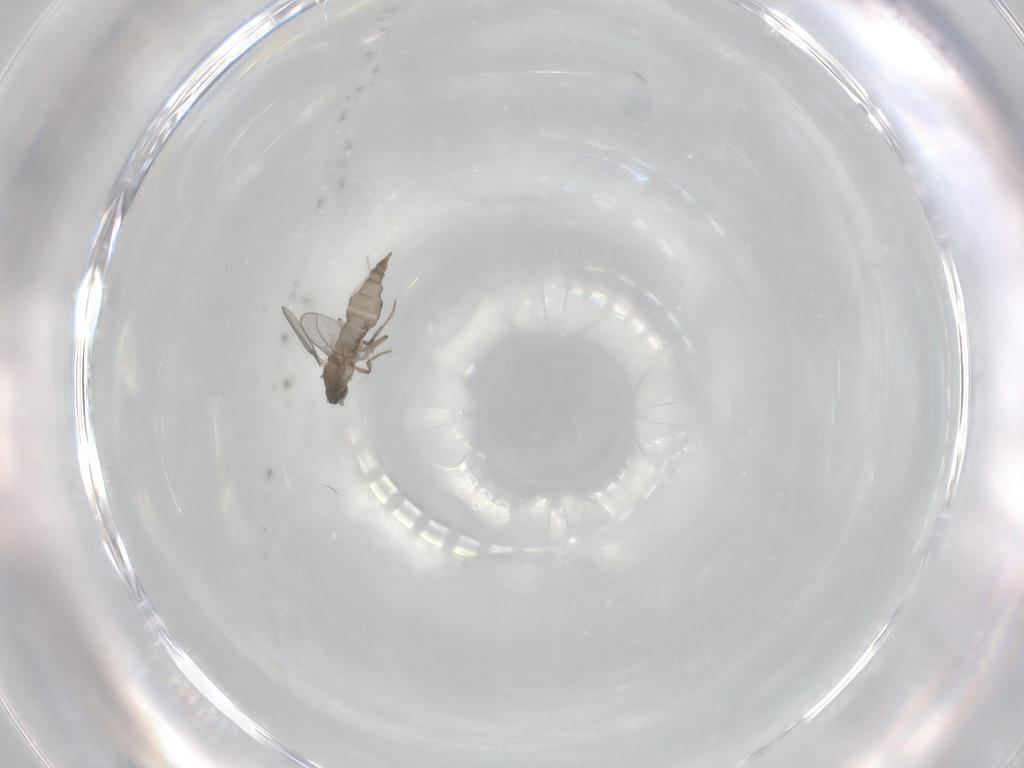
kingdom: Animalia
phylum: Arthropoda
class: Insecta
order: Diptera
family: Cecidomyiidae
